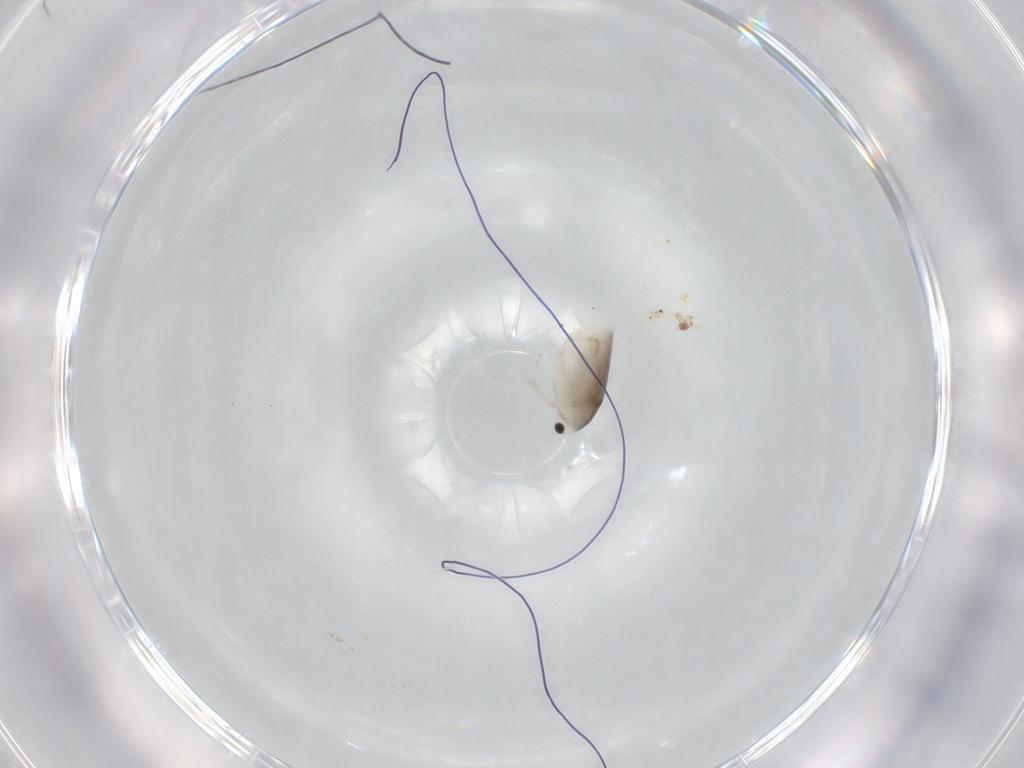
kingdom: Animalia
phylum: Arthropoda
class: Branchiopoda
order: Diplostraca
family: Daphniidae
